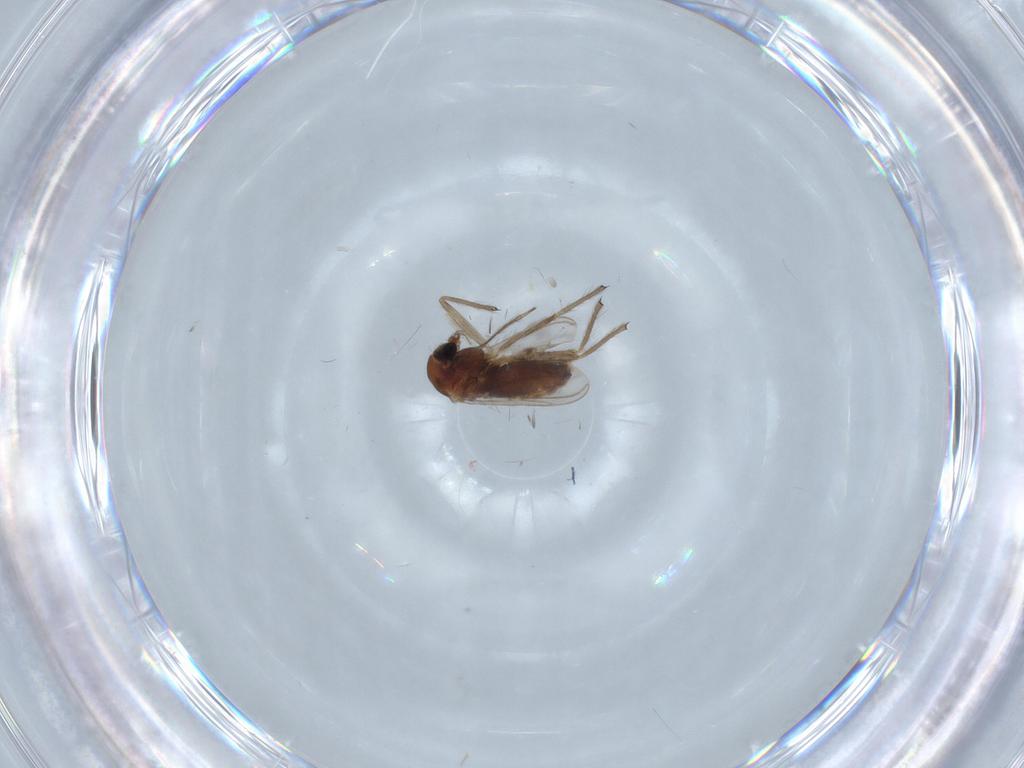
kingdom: Animalia
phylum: Arthropoda
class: Insecta
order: Diptera
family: Chironomidae
